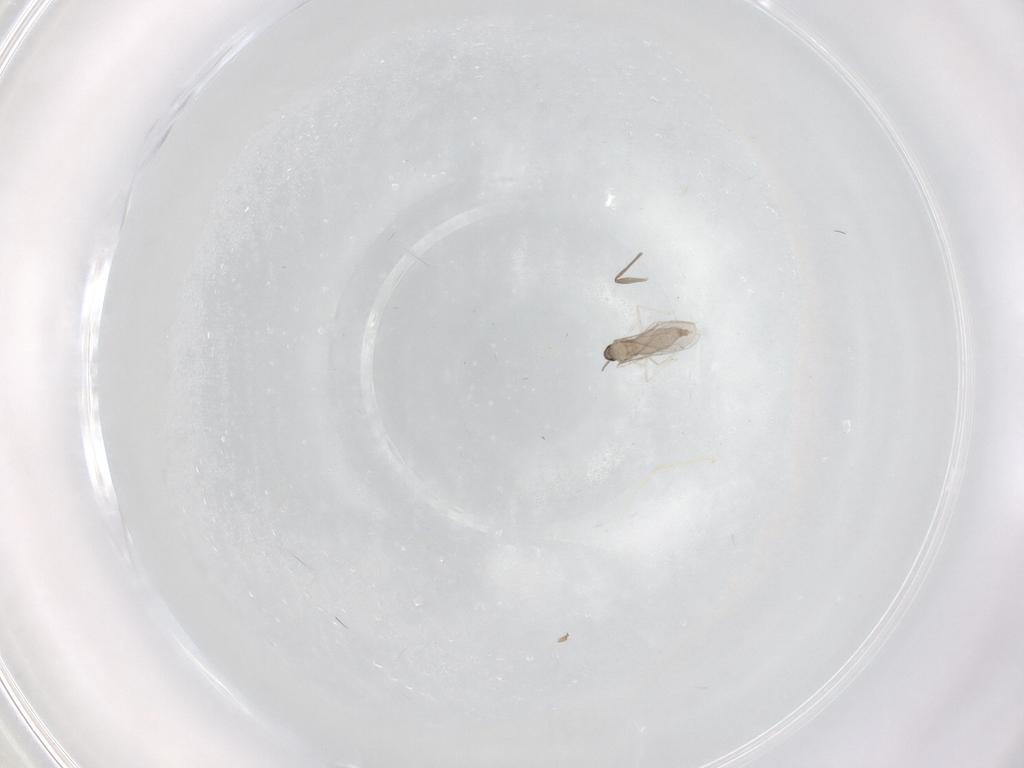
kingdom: Animalia
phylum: Arthropoda
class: Insecta
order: Diptera
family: Cecidomyiidae
